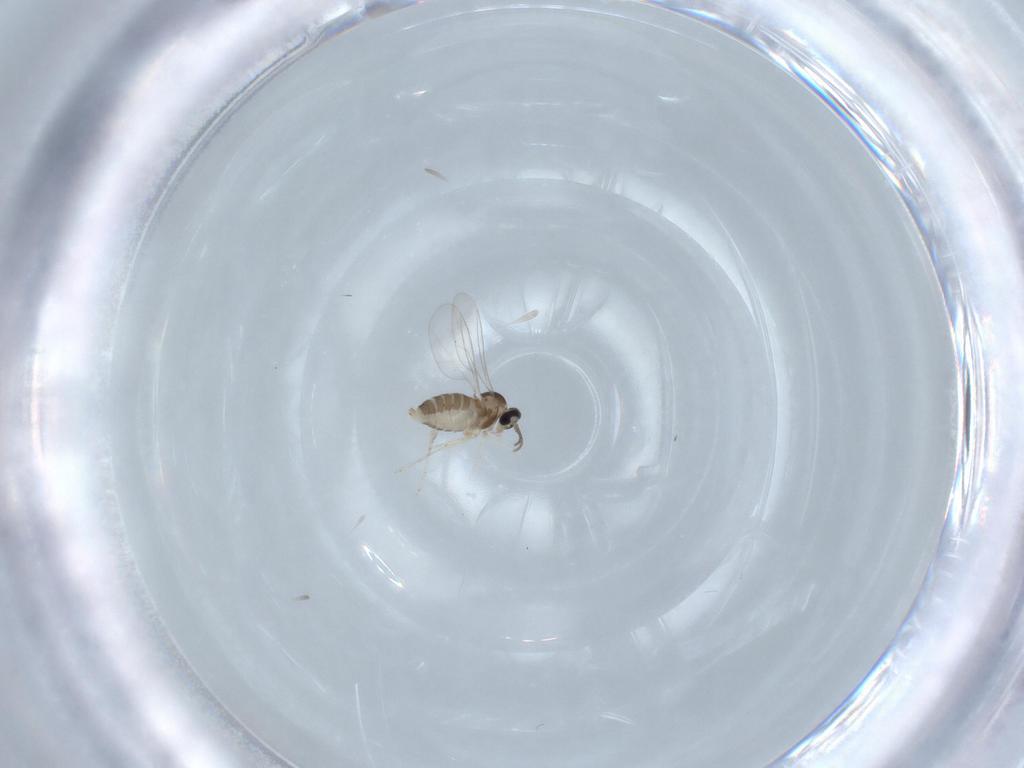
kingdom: Animalia
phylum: Arthropoda
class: Insecta
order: Diptera
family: Cecidomyiidae
